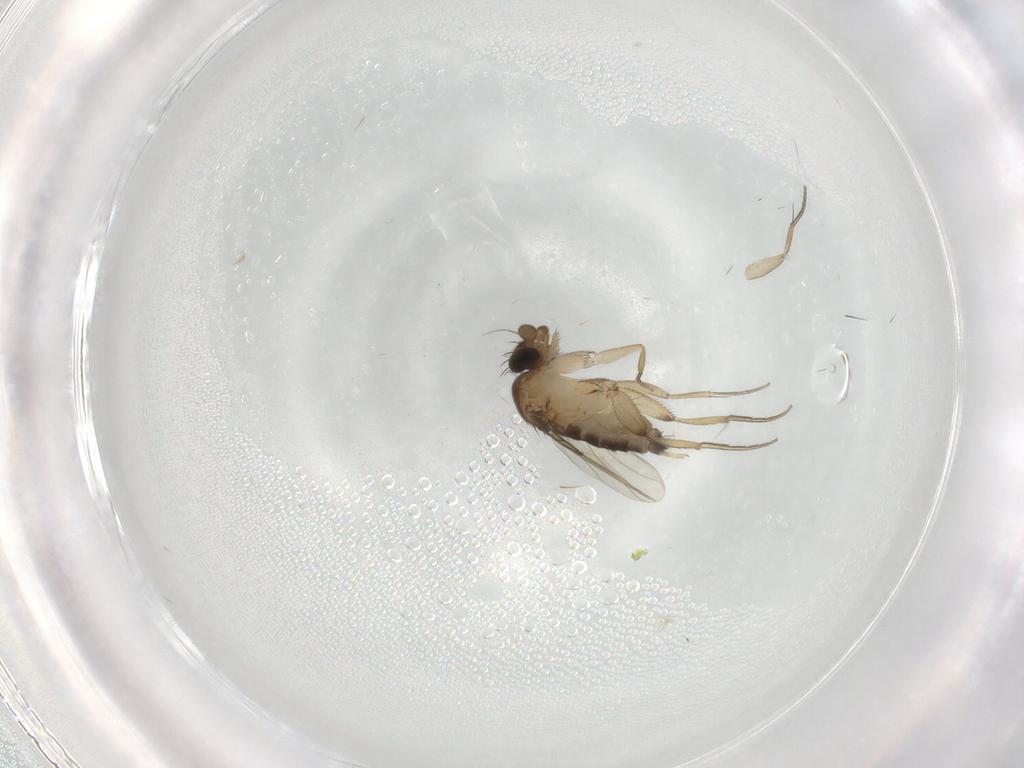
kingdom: Animalia
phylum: Arthropoda
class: Insecta
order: Diptera
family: Phoridae
